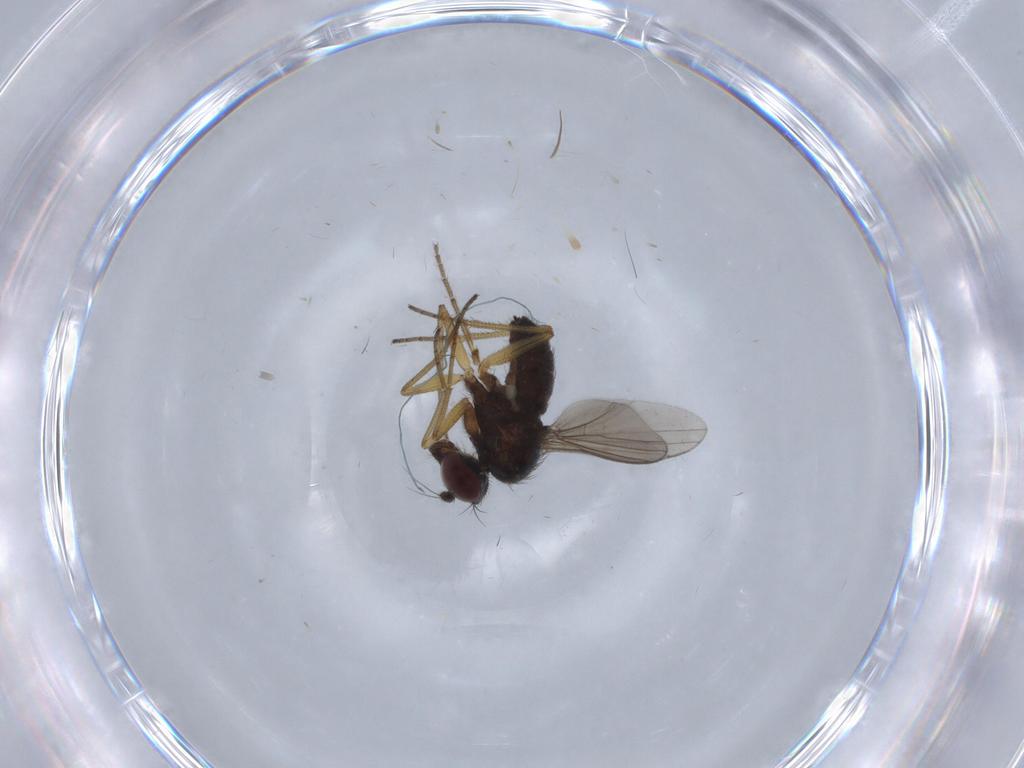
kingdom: Animalia
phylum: Arthropoda
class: Insecta
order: Diptera
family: Dolichopodidae
